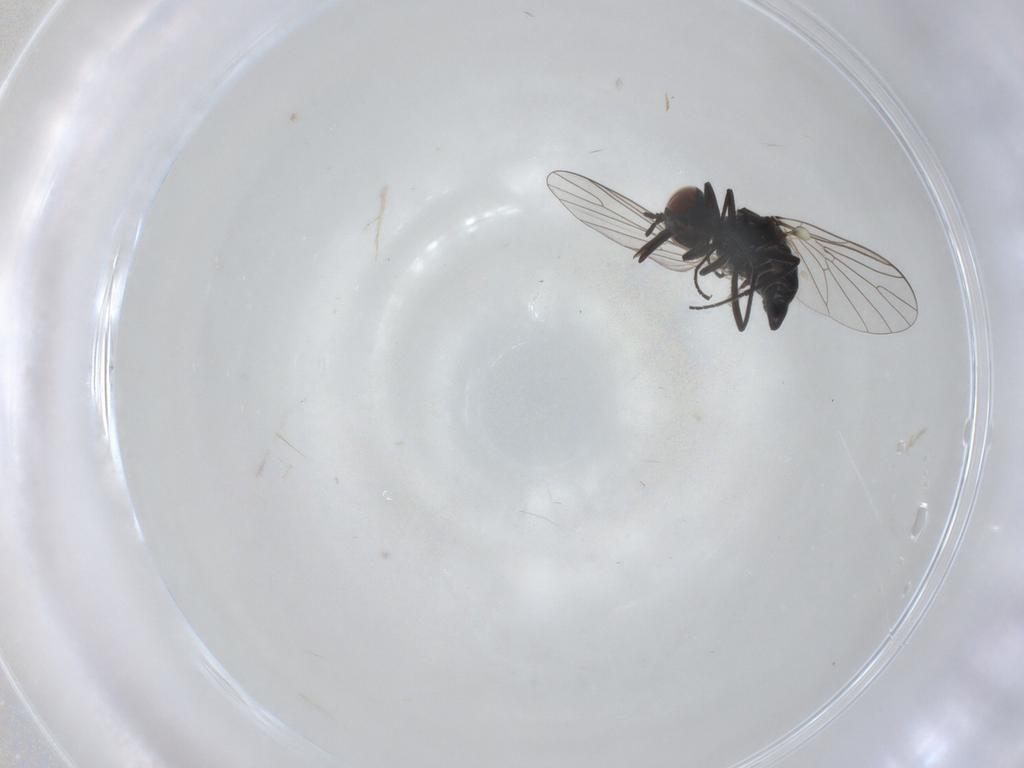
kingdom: Animalia
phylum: Arthropoda
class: Insecta
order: Diptera
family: Bombyliidae
